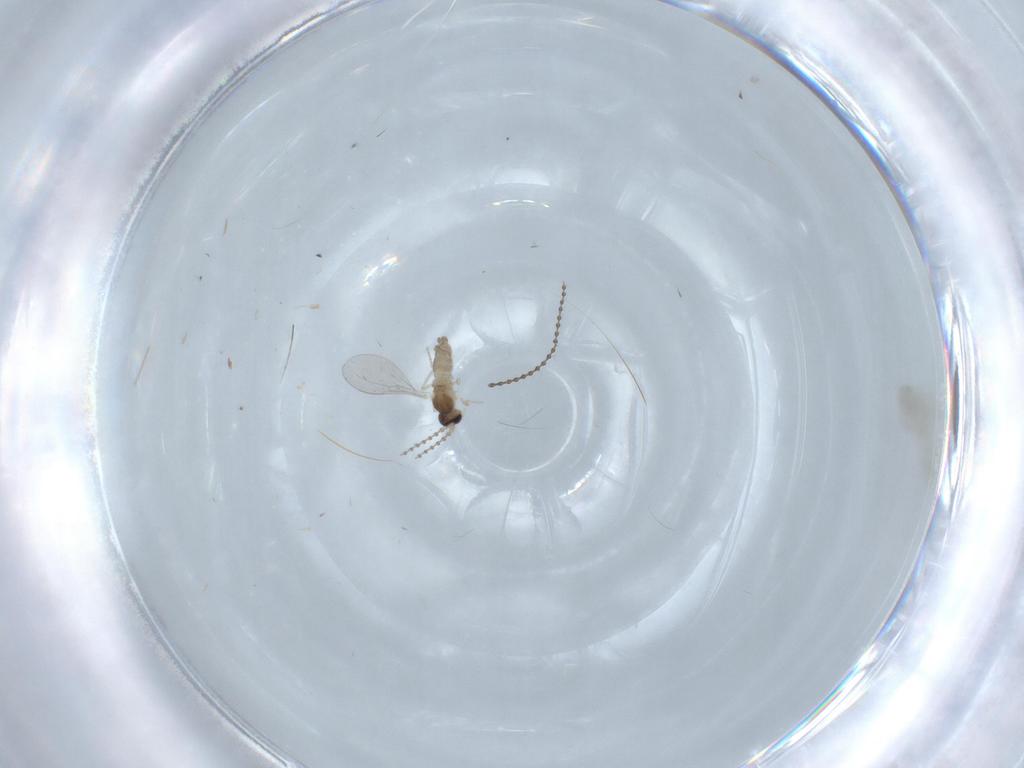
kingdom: Animalia
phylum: Arthropoda
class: Insecta
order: Diptera
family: Cecidomyiidae
